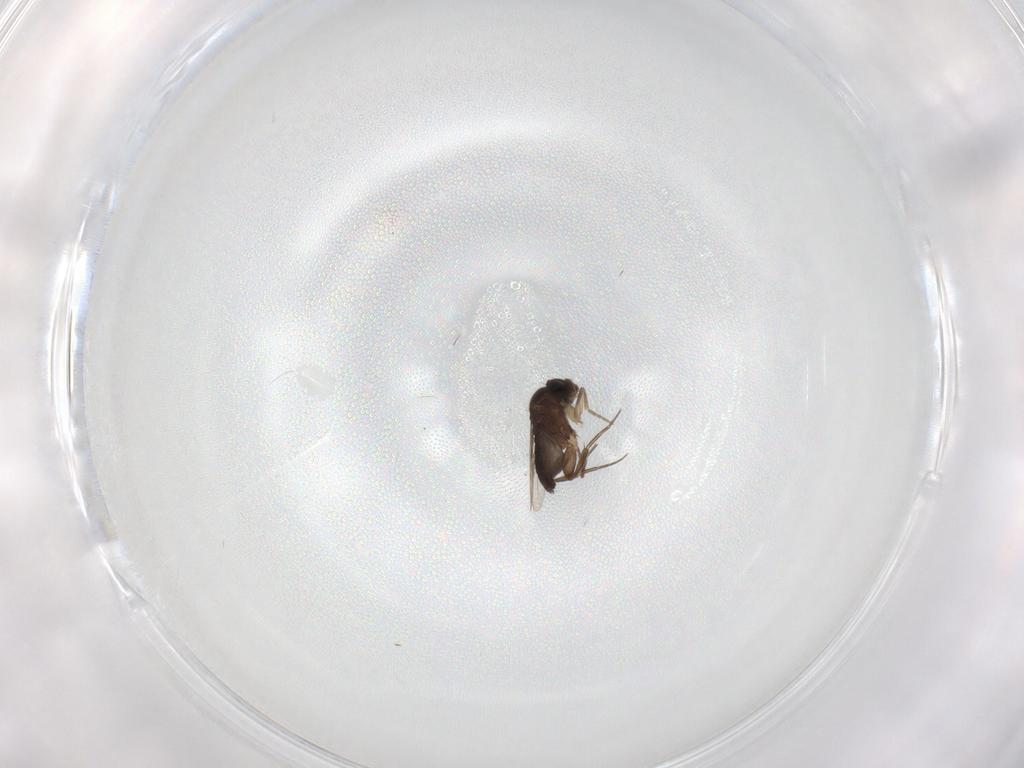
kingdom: Animalia
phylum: Arthropoda
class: Insecta
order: Diptera
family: Phoridae
